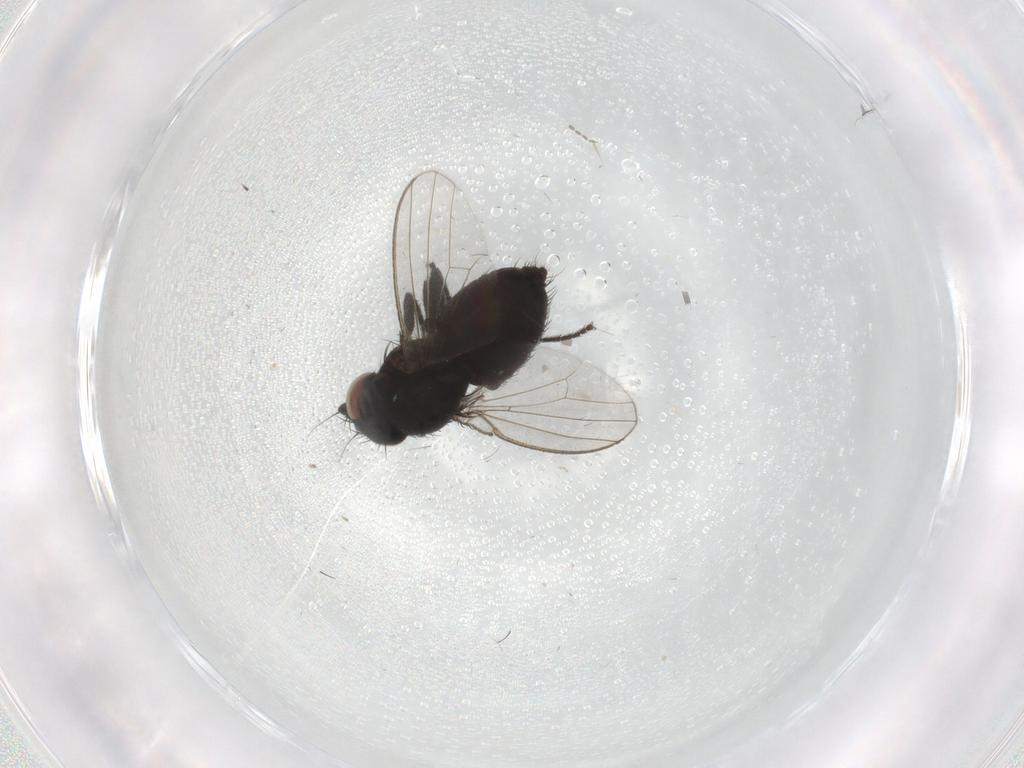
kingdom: Animalia
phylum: Arthropoda
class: Insecta
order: Diptera
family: Milichiidae
